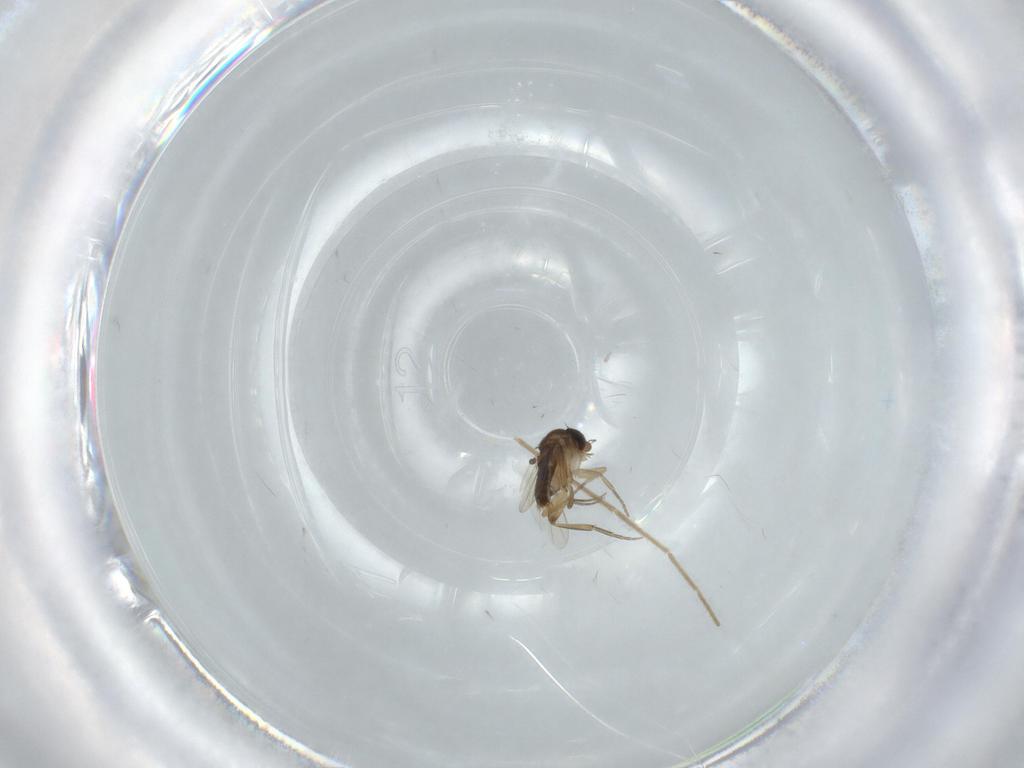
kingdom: Animalia
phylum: Arthropoda
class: Insecta
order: Diptera
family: Chironomidae
